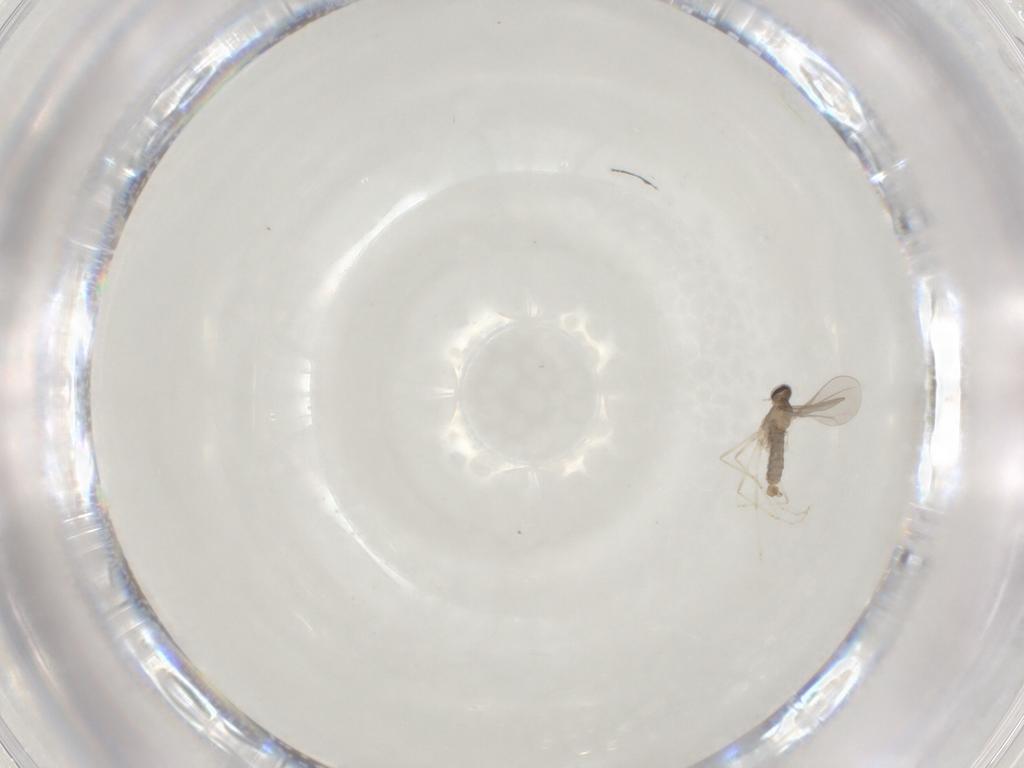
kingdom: Animalia
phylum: Arthropoda
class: Insecta
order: Diptera
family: Cecidomyiidae
